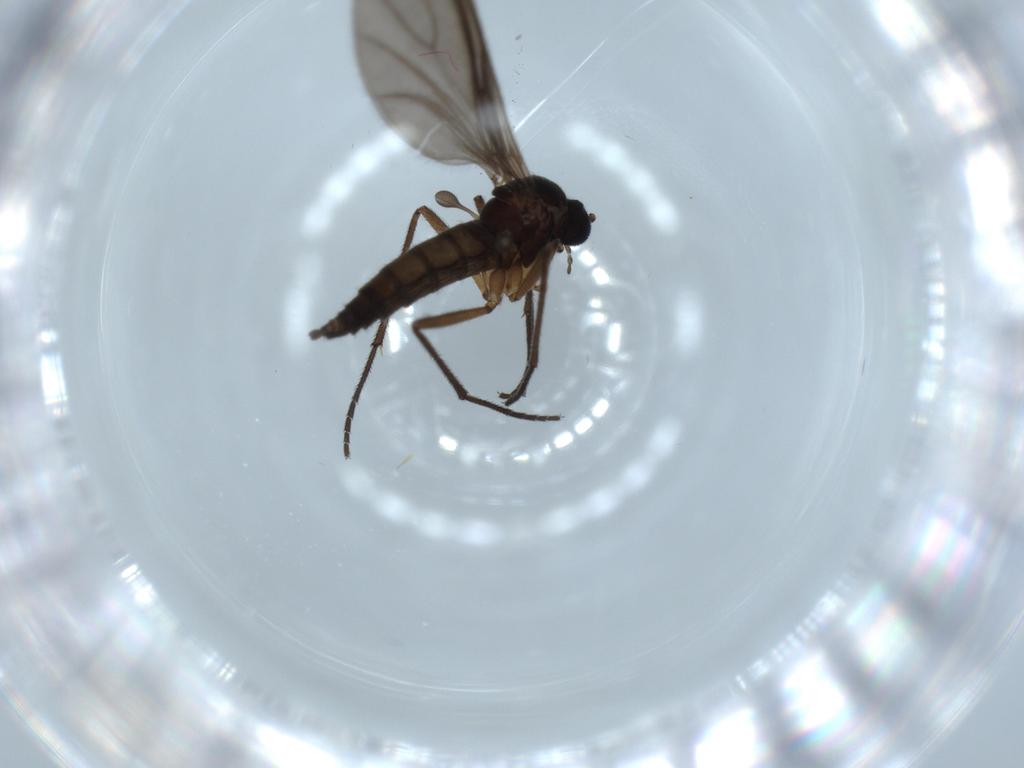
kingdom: Animalia
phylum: Arthropoda
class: Insecta
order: Diptera
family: Sciaridae
